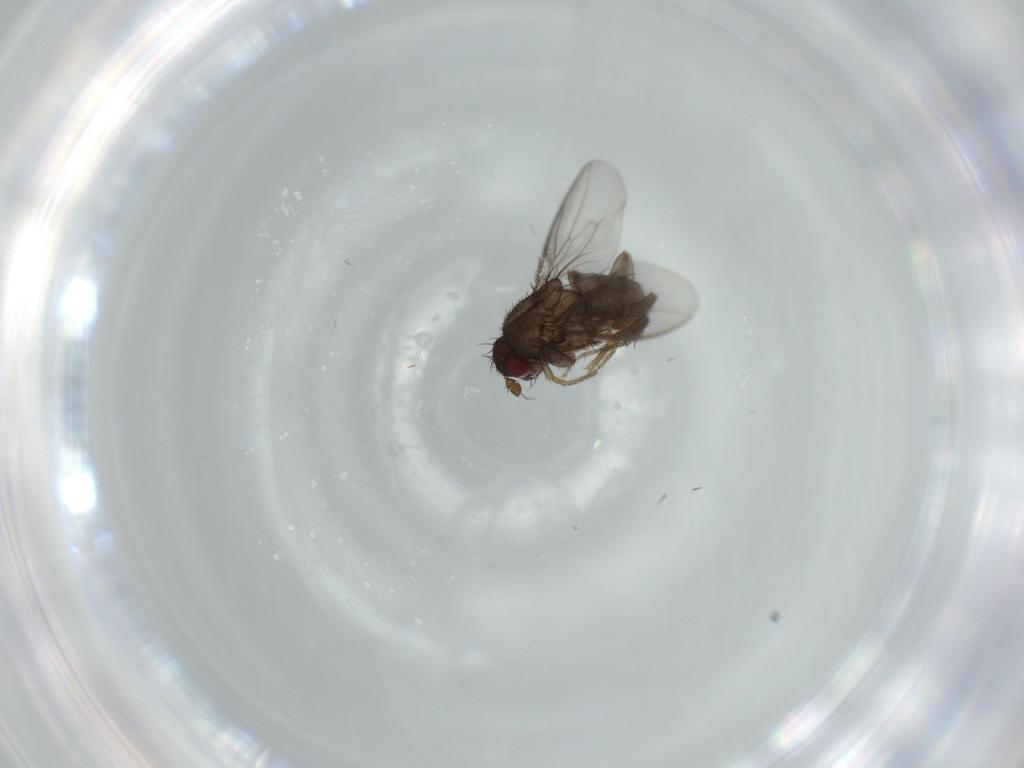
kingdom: Animalia
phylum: Arthropoda
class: Insecta
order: Diptera
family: Sphaeroceridae
